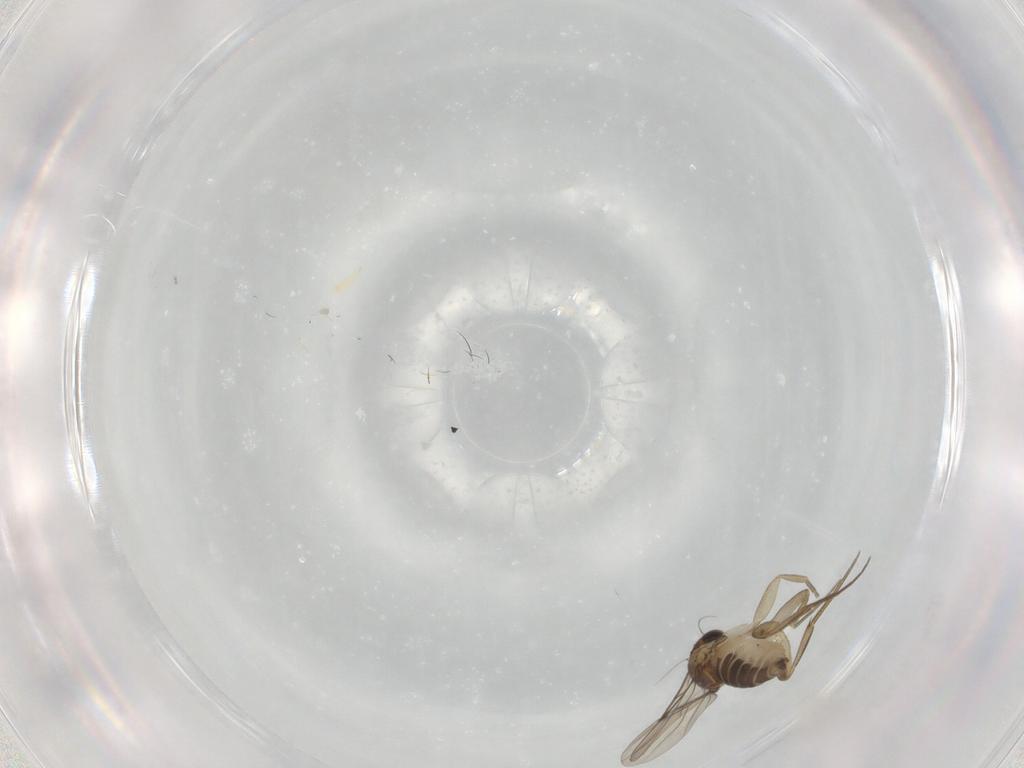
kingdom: Animalia
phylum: Arthropoda
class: Insecta
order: Diptera
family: Phoridae
